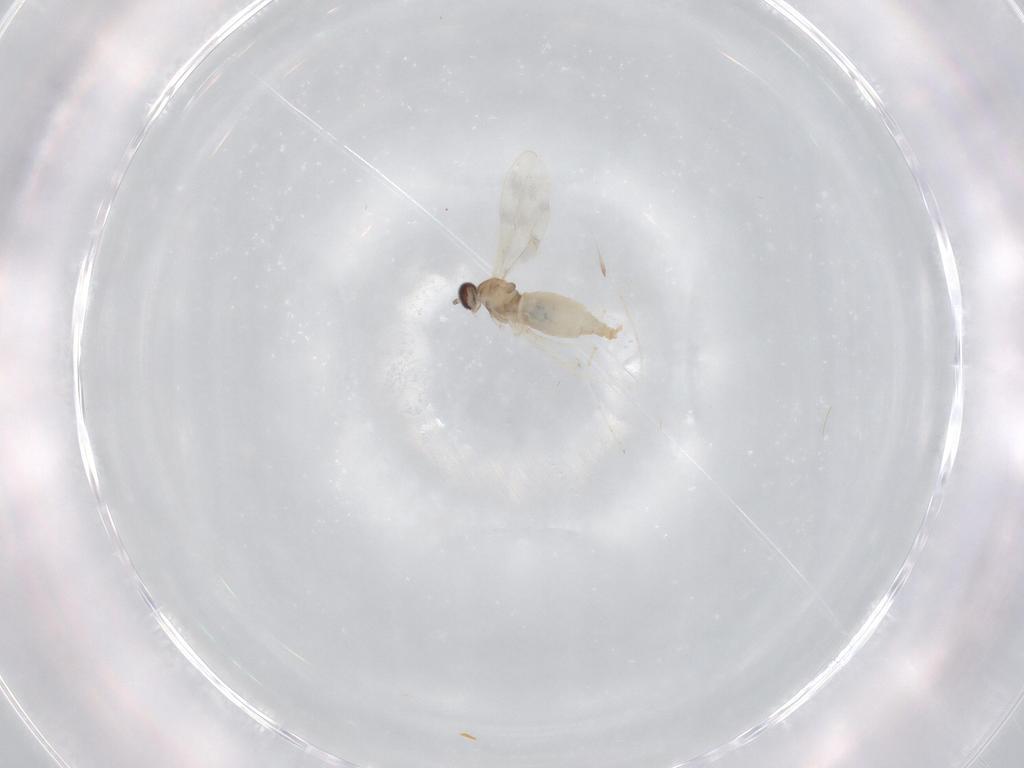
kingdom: Animalia
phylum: Arthropoda
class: Insecta
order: Diptera
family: Cecidomyiidae
